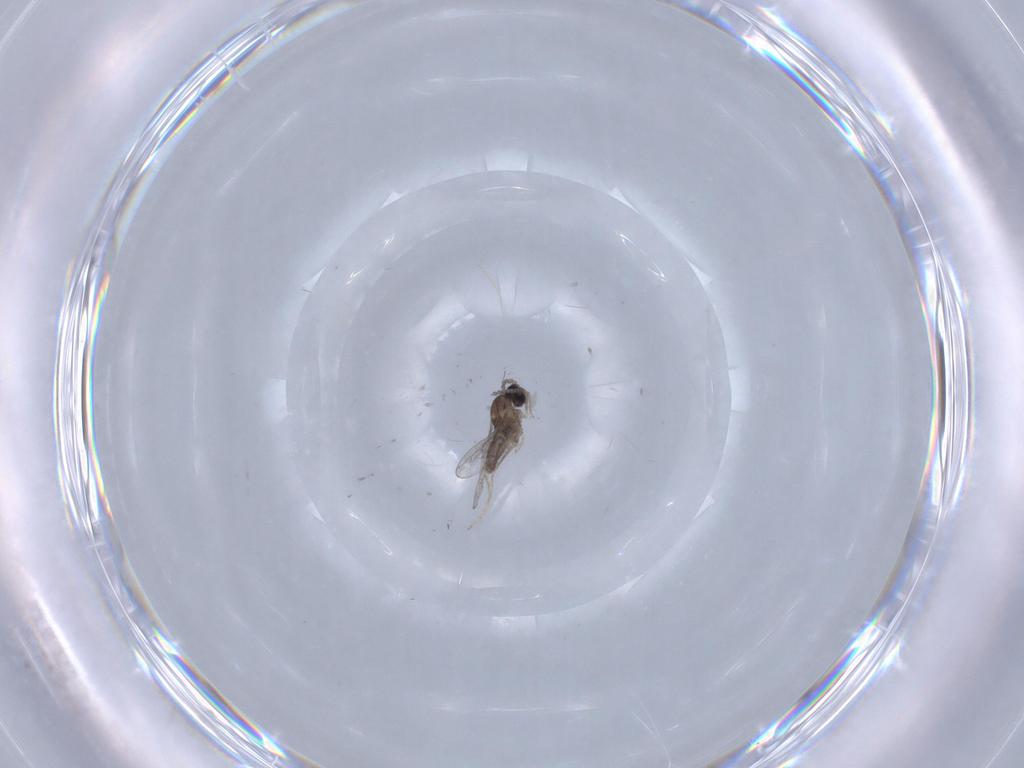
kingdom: Animalia
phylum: Arthropoda
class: Insecta
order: Diptera
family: Cecidomyiidae
